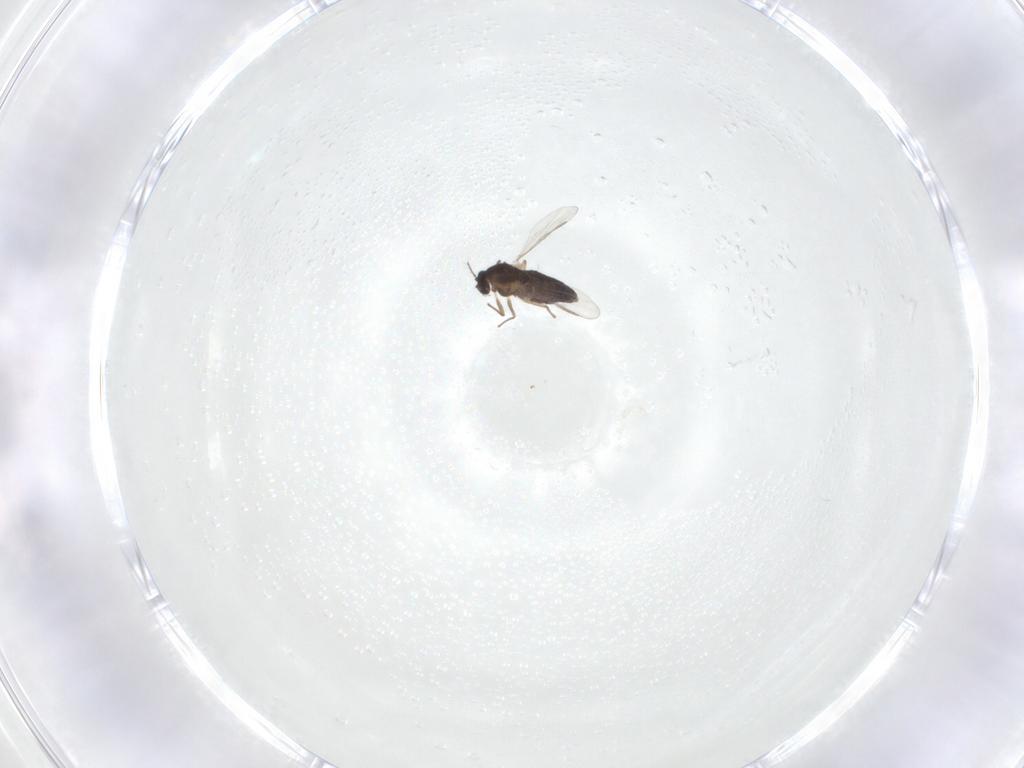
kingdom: Animalia
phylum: Arthropoda
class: Insecta
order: Diptera
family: Chironomidae
